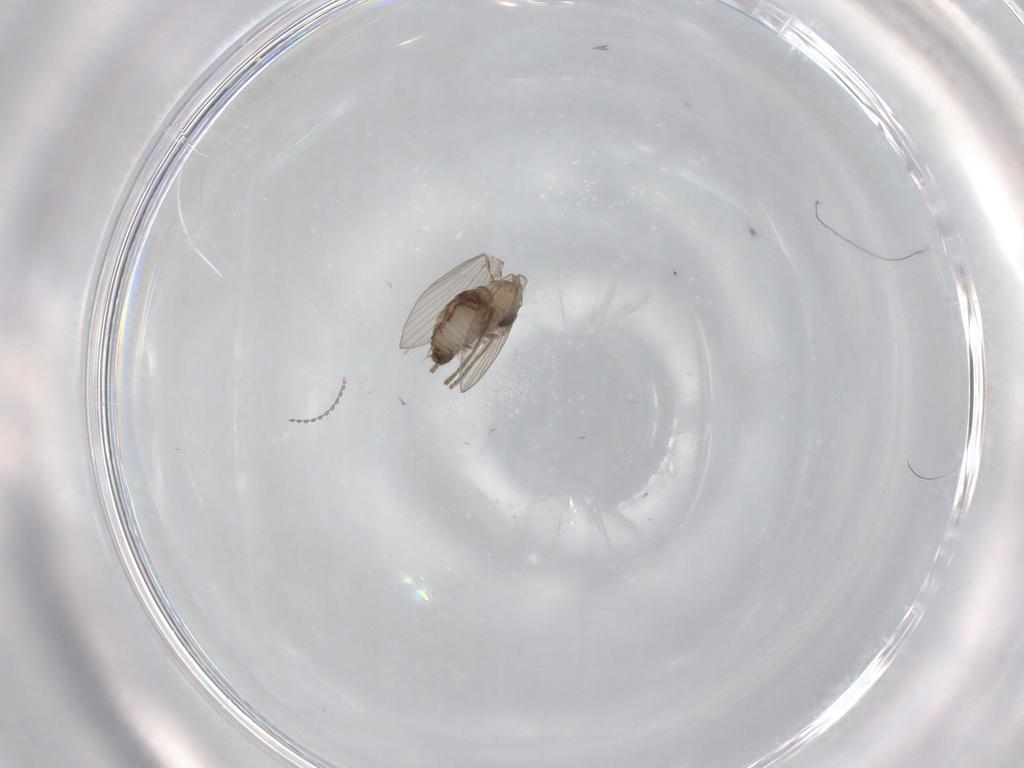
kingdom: Animalia
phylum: Arthropoda
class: Insecta
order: Diptera
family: Psychodidae
